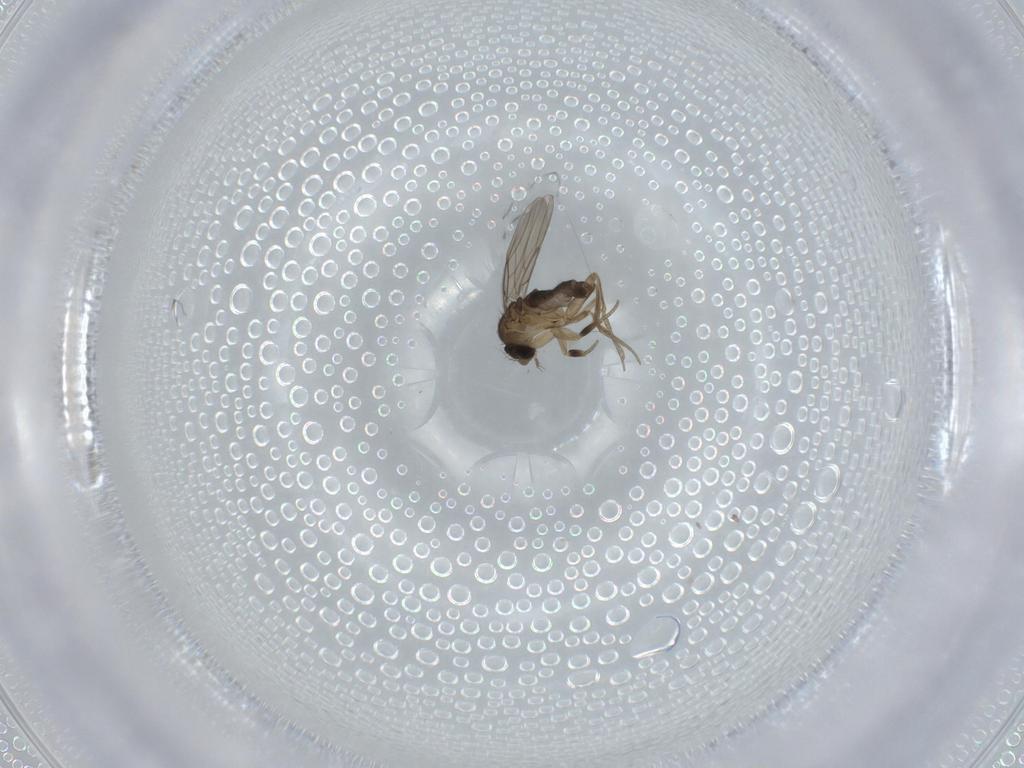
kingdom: Animalia
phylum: Arthropoda
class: Insecta
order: Diptera
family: Phoridae
